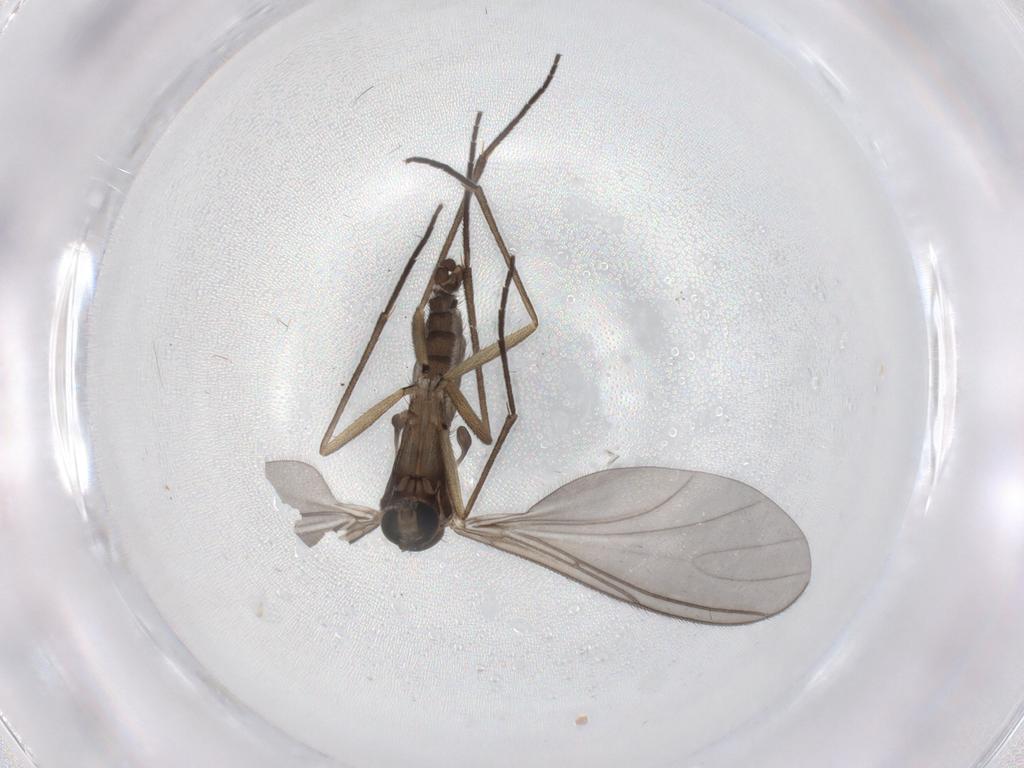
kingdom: Animalia
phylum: Arthropoda
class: Insecta
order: Diptera
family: Sciaridae
